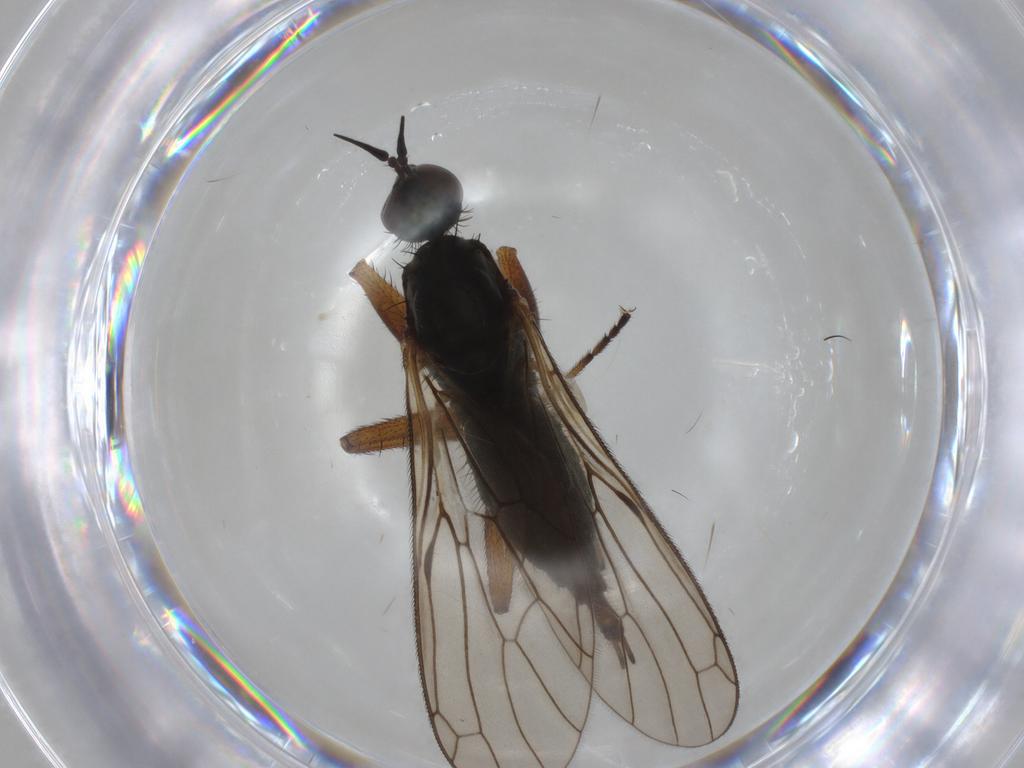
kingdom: Animalia
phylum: Arthropoda
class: Insecta
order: Diptera
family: Empididae
